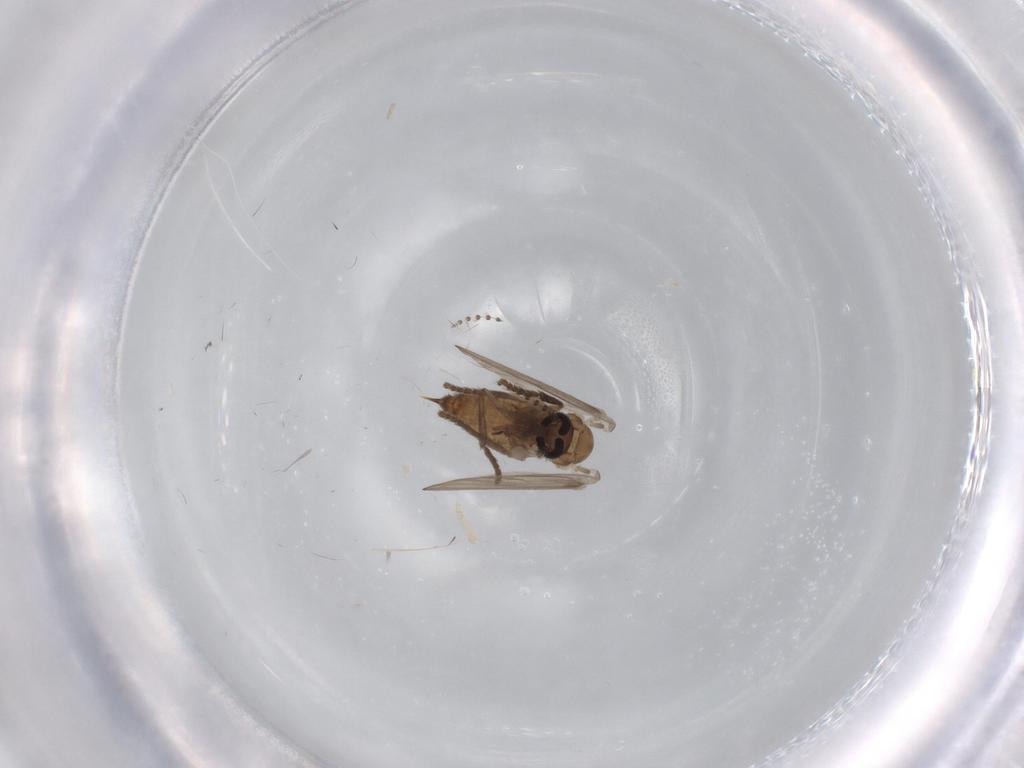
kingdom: Animalia
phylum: Arthropoda
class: Insecta
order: Diptera
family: Psychodidae
